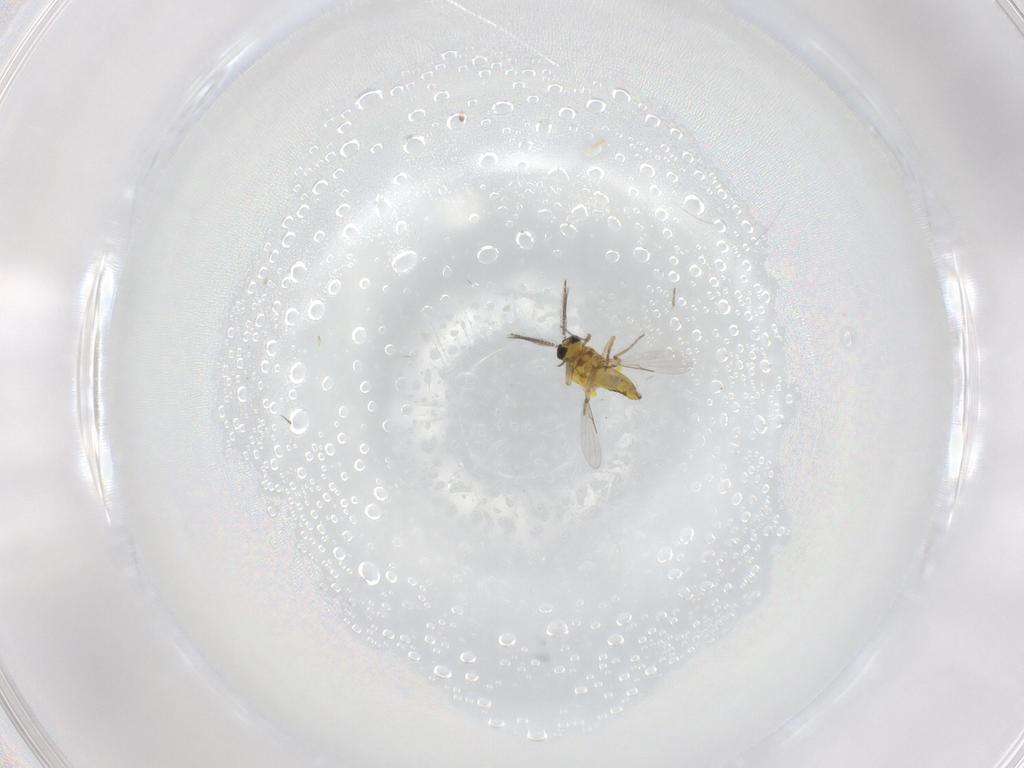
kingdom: Animalia
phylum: Arthropoda
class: Insecta
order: Diptera
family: Ceratopogonidae
